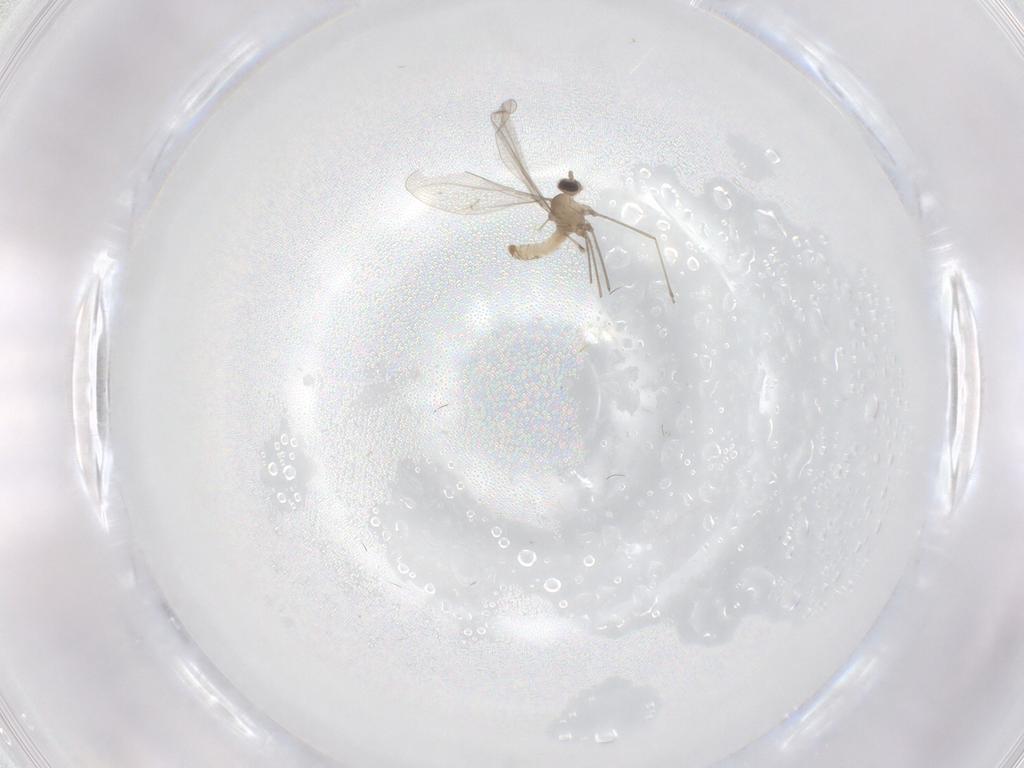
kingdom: Animalia
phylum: Arthropoda
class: Insecta
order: Diptera
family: Cecidomyiidae
